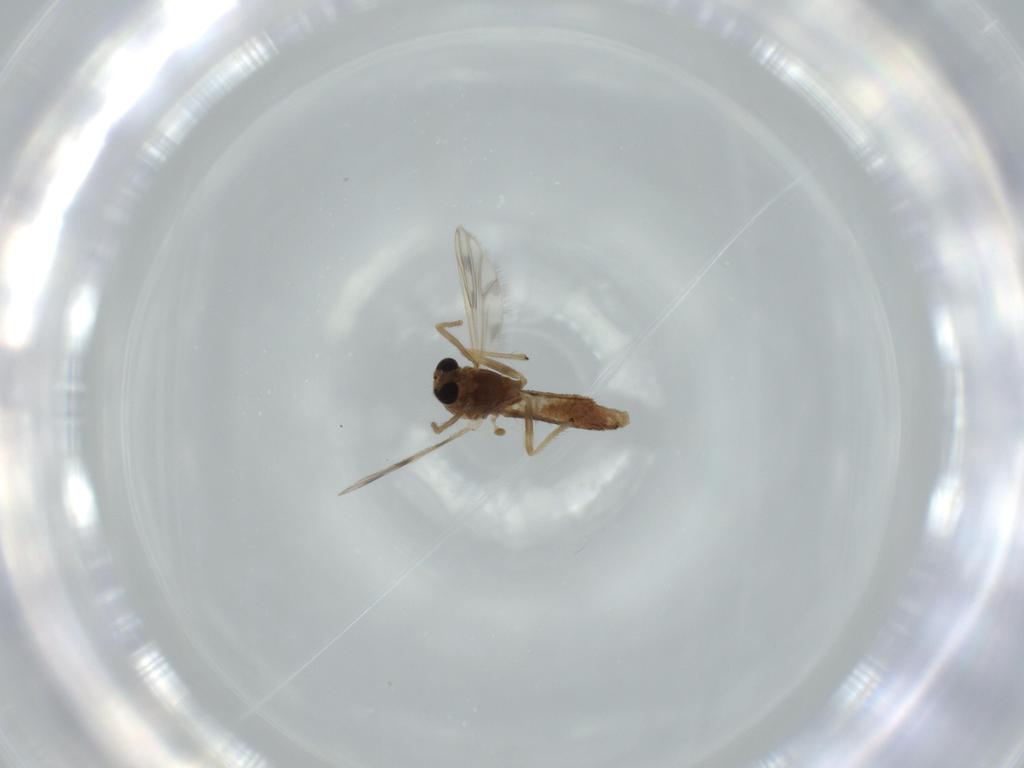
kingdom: Animalia
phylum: Arthropoda
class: Insecta
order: Diptera
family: Chironomidae
